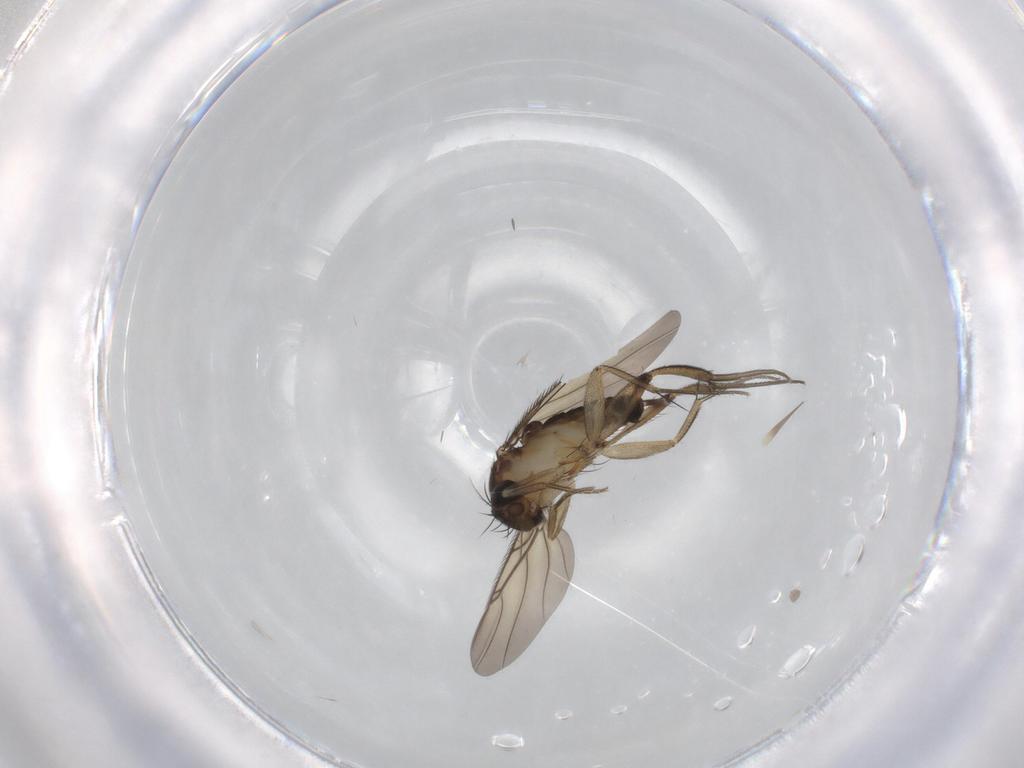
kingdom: Animalia
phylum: Arthropoda
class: Insecta
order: Diptera
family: Phoridae
